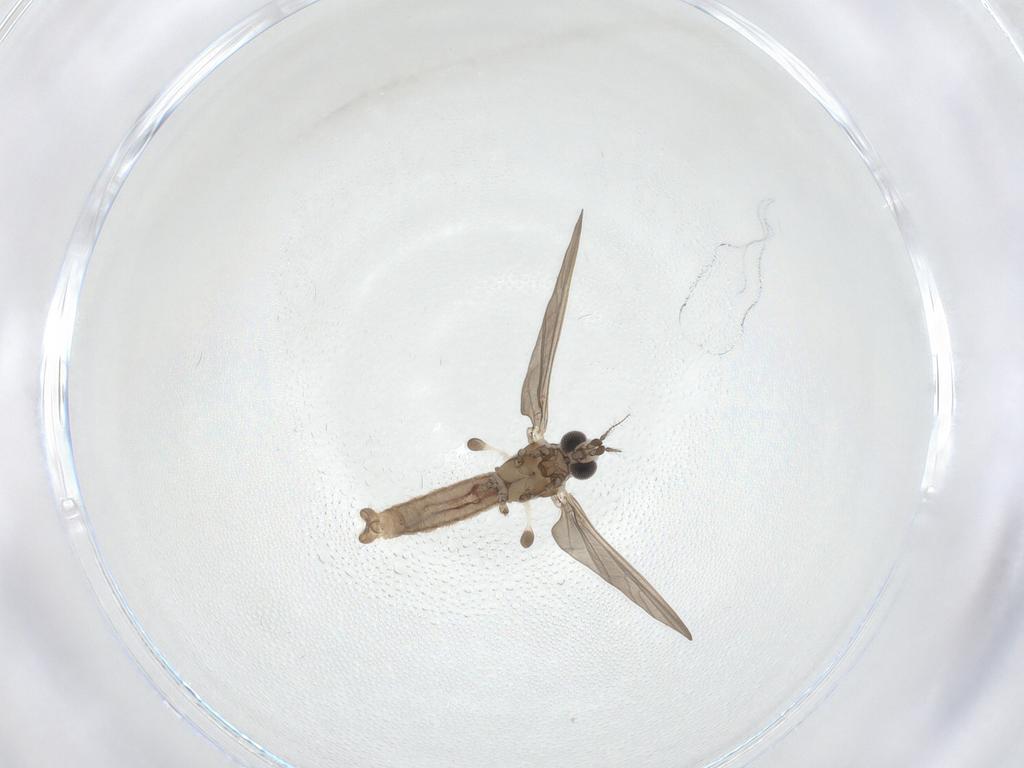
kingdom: Animalia
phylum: Arthropoda
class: Insecta
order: Diptera
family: Limoniidae
